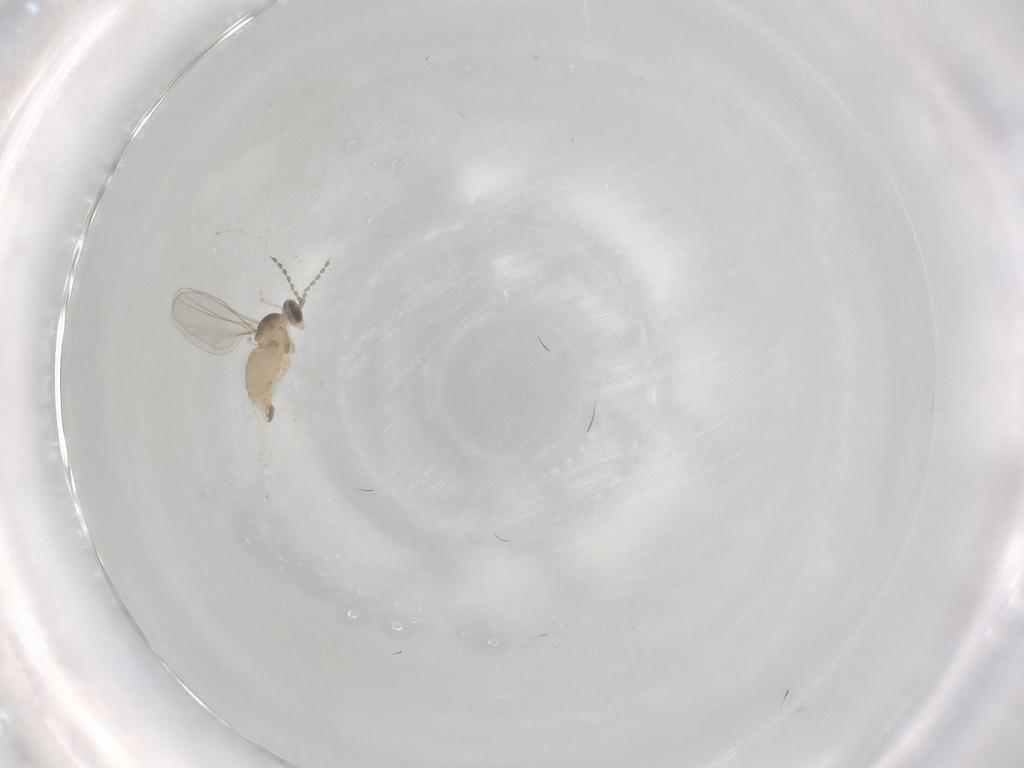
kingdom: Animalia
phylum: Arthropoda
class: Insecta
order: Diptera
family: Cecidomyiidae
